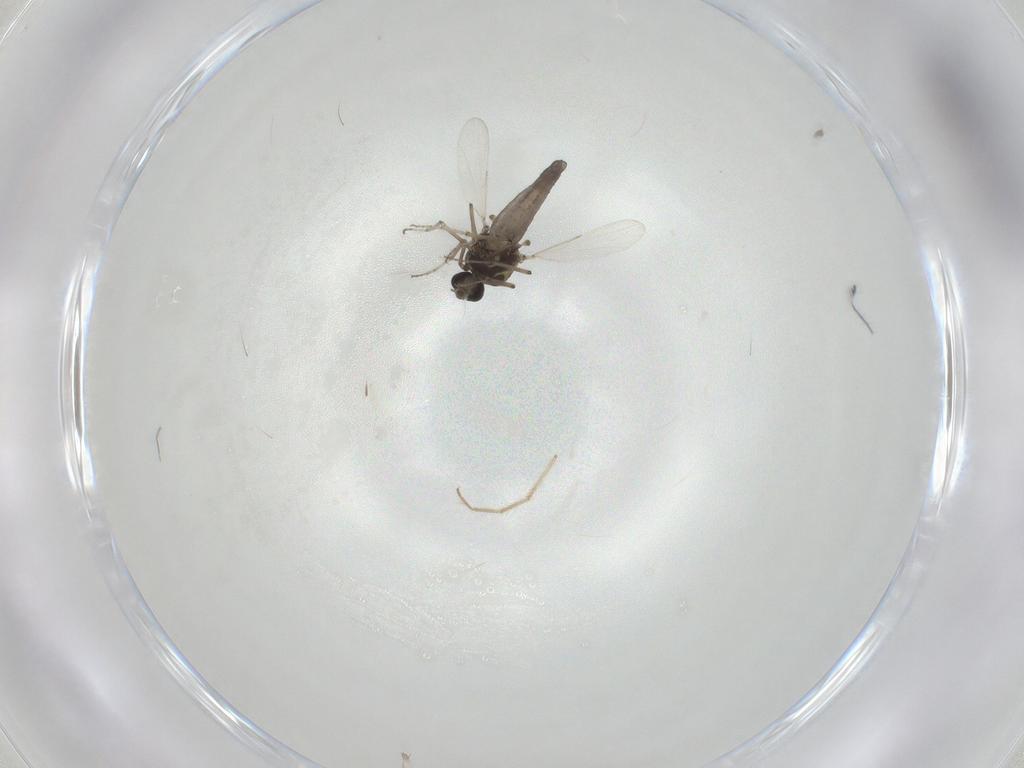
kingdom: Animalia
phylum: Arthropoda
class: Insecta
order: Diptera
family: Ceratopogonidae
